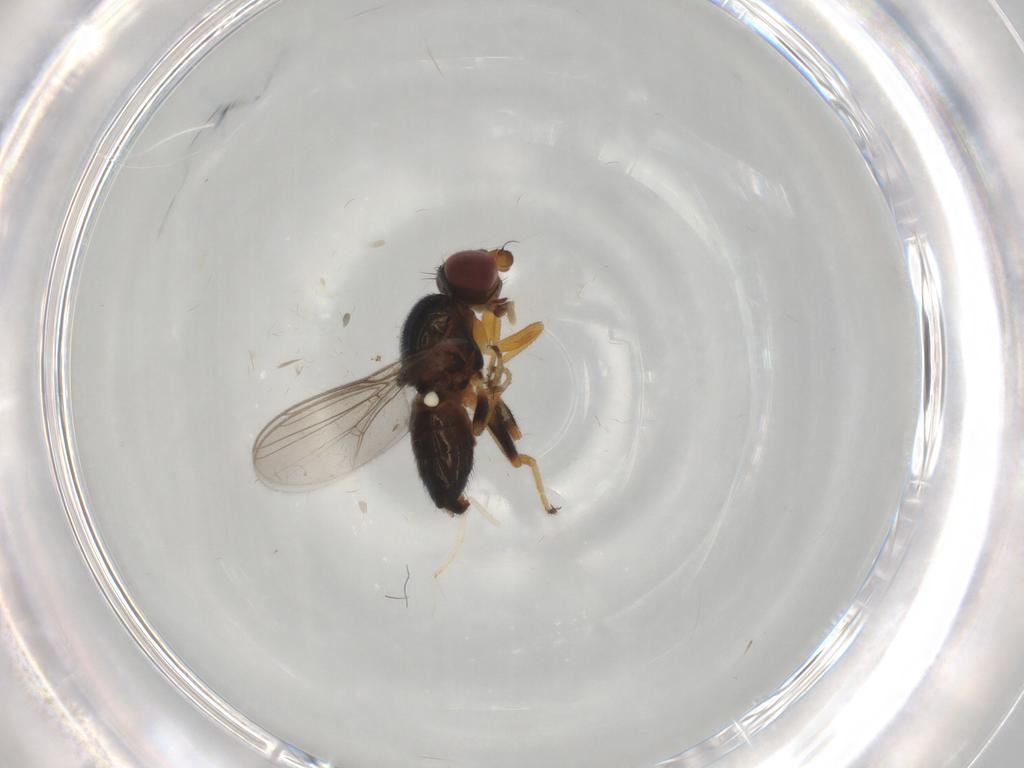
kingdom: Animalia
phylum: Arthropoda
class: Insecta
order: Diptera
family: Chloropidae
